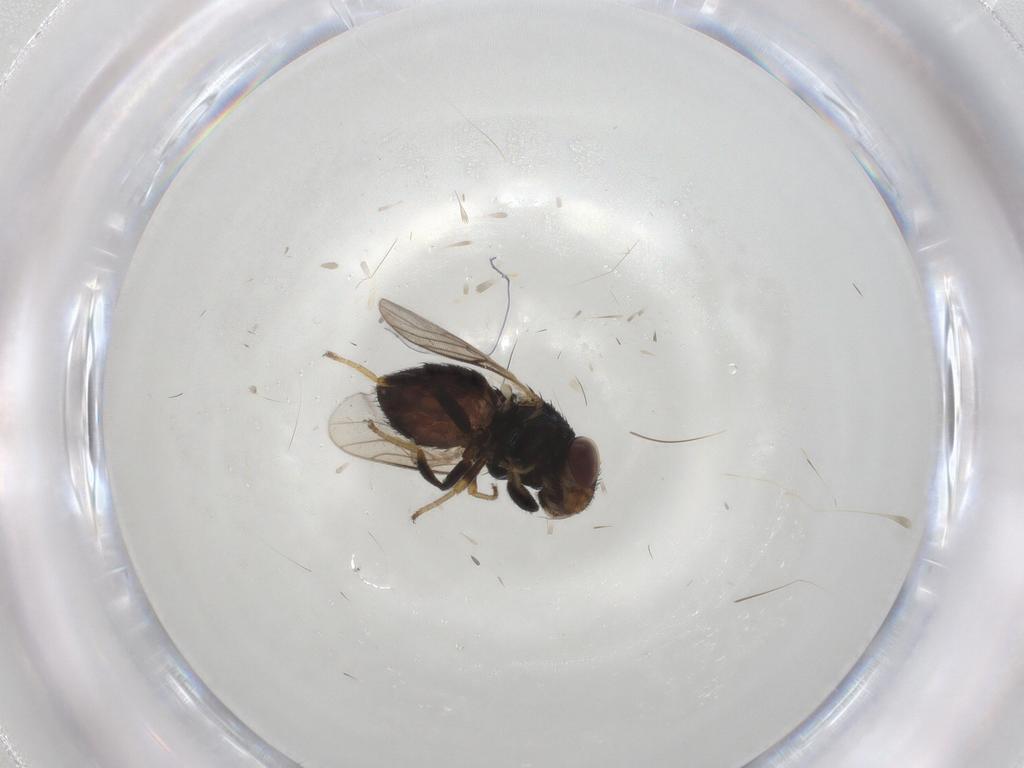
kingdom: Animalia
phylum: Arthropoda
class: Insecta
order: Diptera
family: Chloropidae
